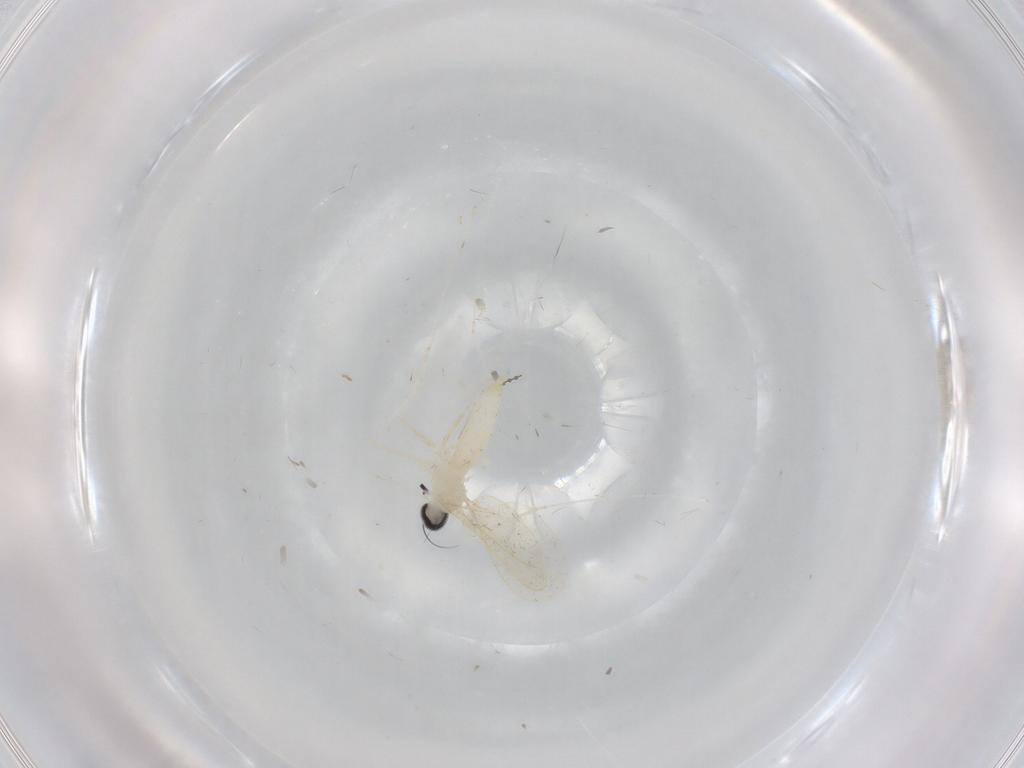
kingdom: Animalia
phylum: Arthropoda
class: Insecta
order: Diptera
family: Cecidomyiidae
